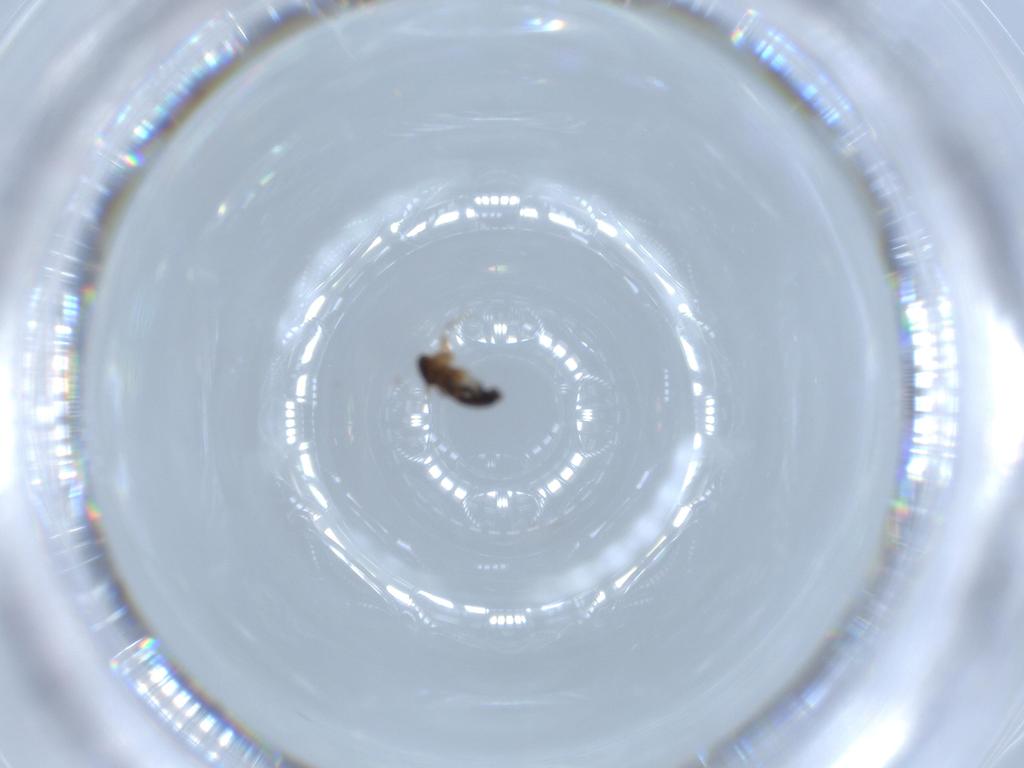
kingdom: Animalia
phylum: Arthropoda
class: Insecta
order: Diptera
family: Phoridae
